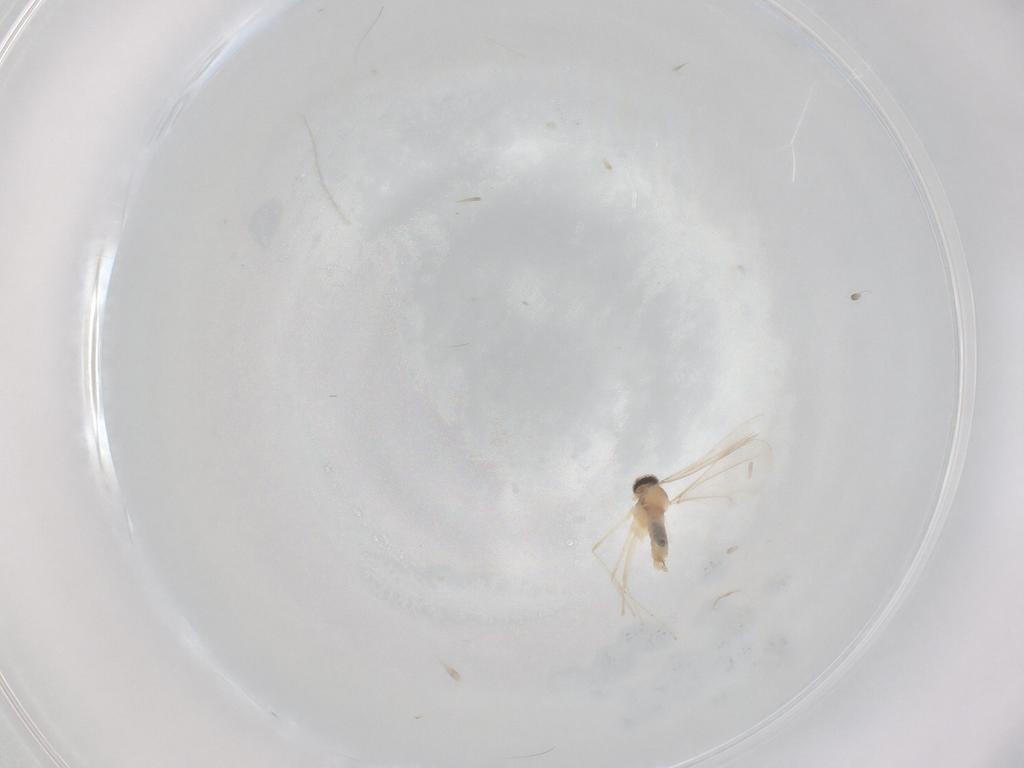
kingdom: Animalia
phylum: Arthropoda
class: Insecta
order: Diptera
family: Cecidomyiidae
